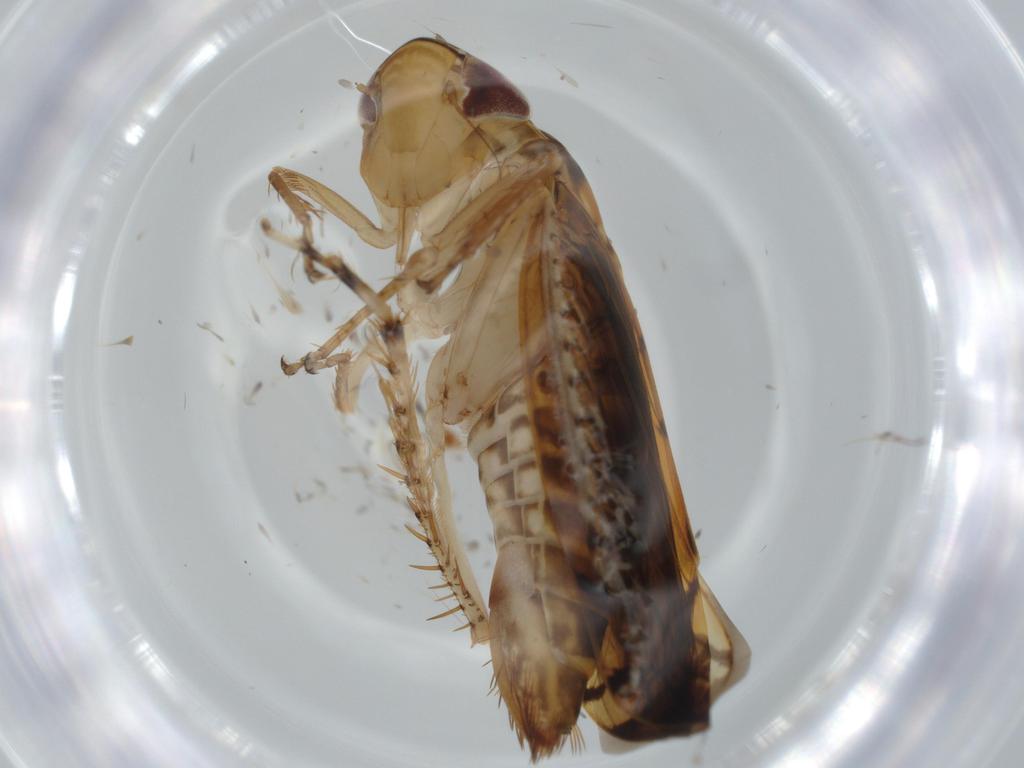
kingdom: Animalia
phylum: Arthropoda
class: Insecta
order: Hemiptera
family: Cicadellidae
